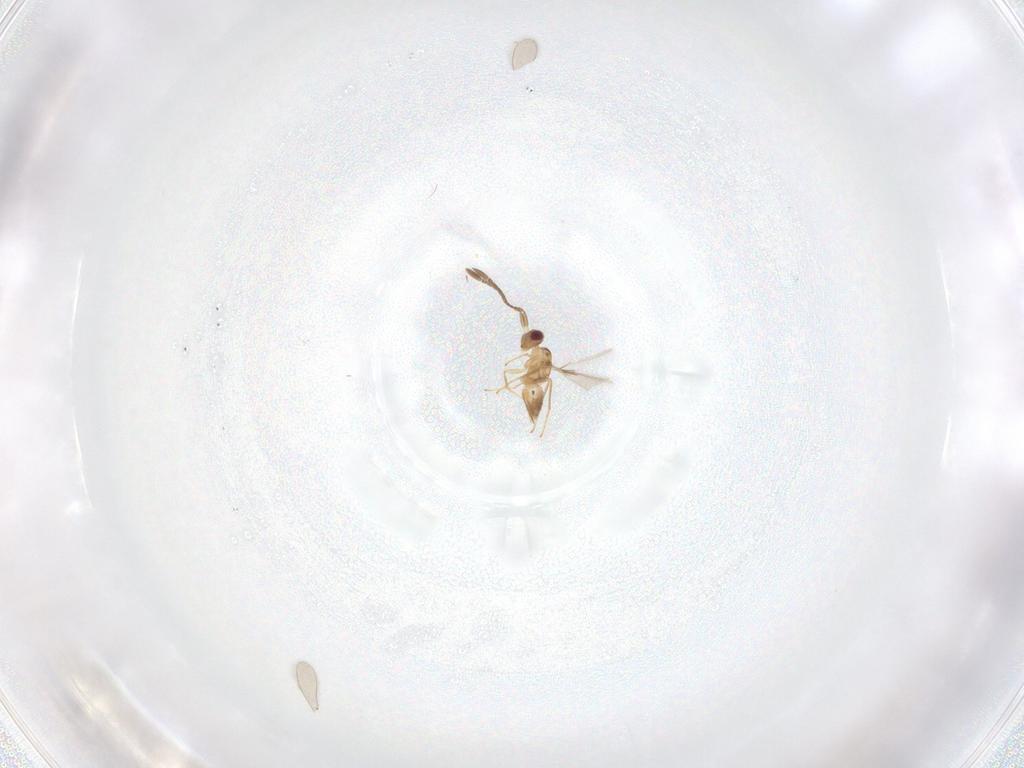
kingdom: Animalia
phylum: Arthropoda
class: Insecta
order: Hymenoptera
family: Mymaridae
